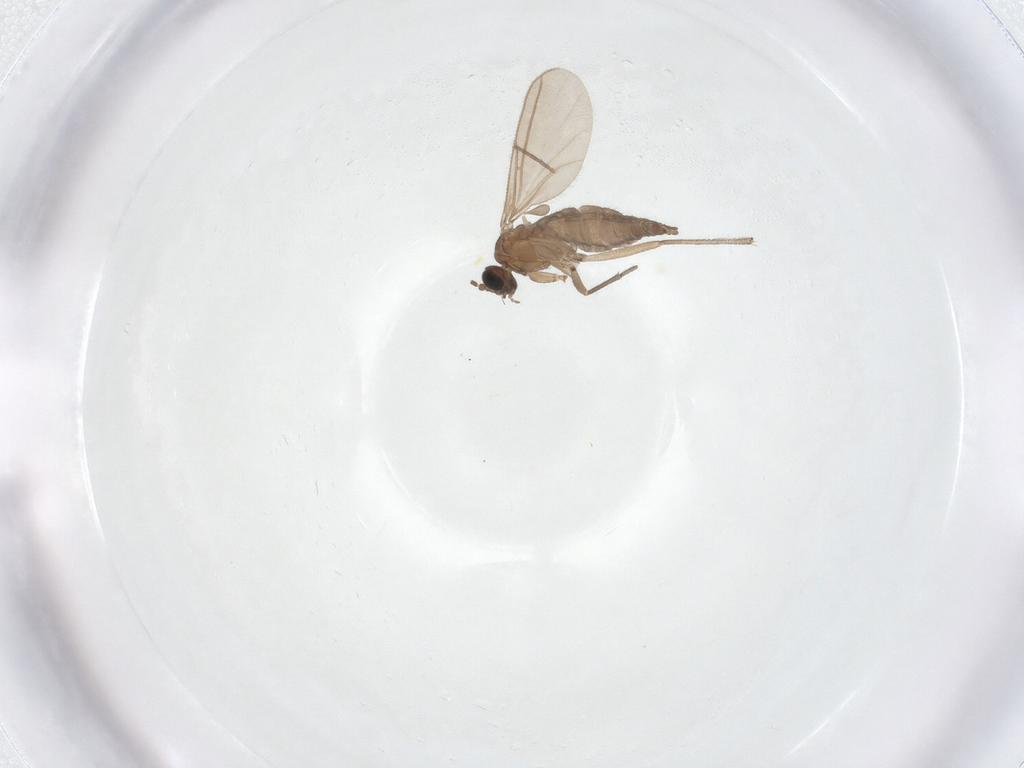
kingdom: Animalia
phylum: Arthropoda
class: Insecta
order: Diptera
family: Sciaridae
